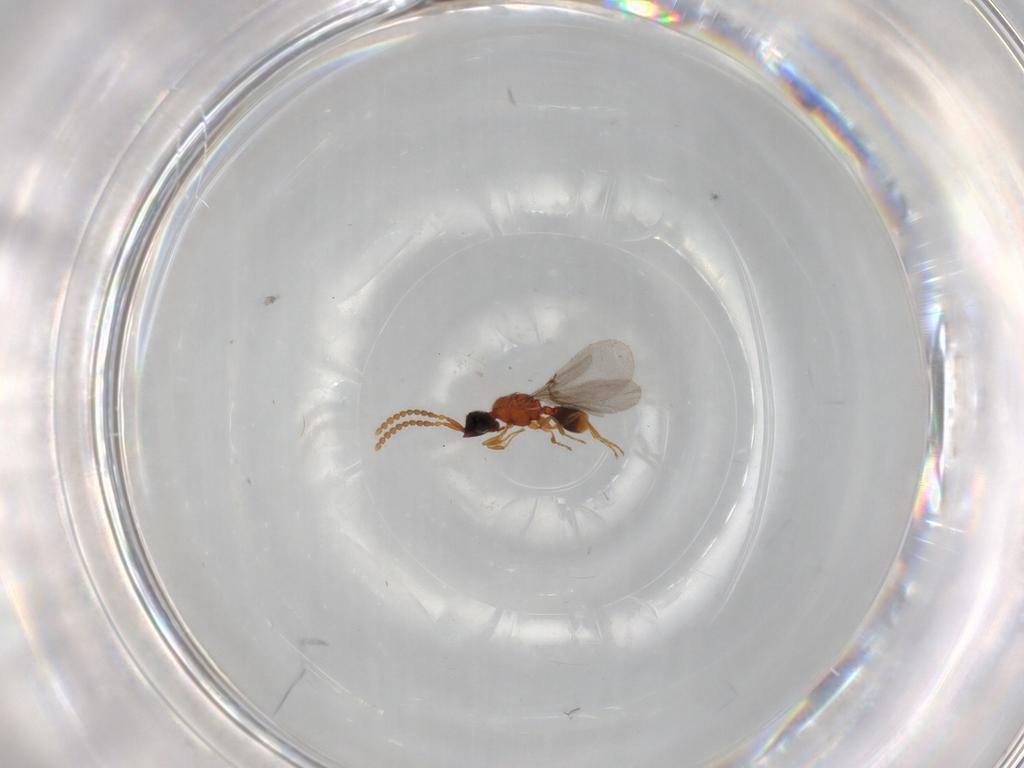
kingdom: Animalia
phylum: Arthropoda
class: Insecta
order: Hymenoptera
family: Diapriidae
